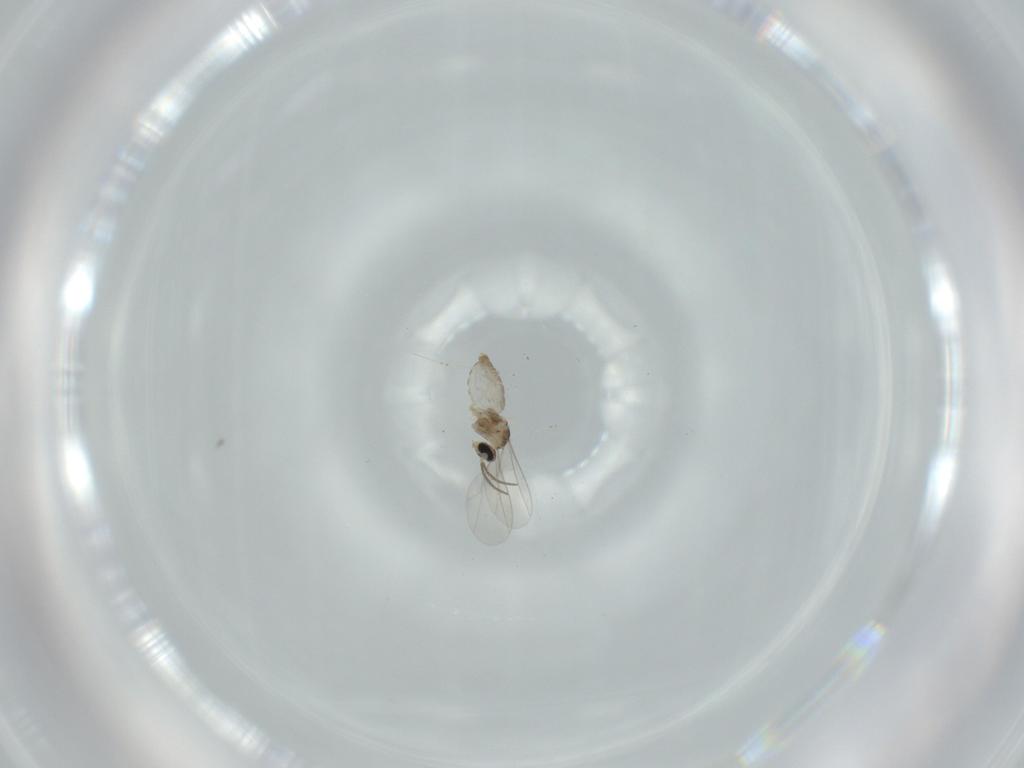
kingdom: Animalia
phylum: Arthropoda
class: Insecta
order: Diptera
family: Cecidomyiidae
